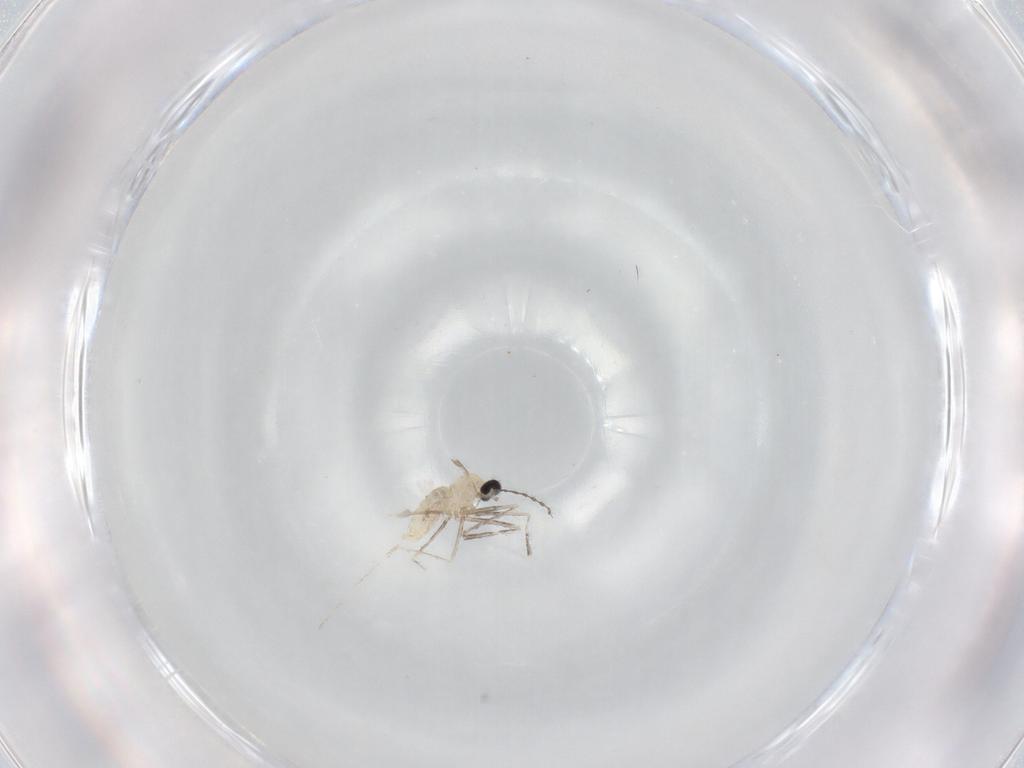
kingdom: Animalia
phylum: Arthropoda
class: Insecta
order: Diptera
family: Cecidomyiidae
